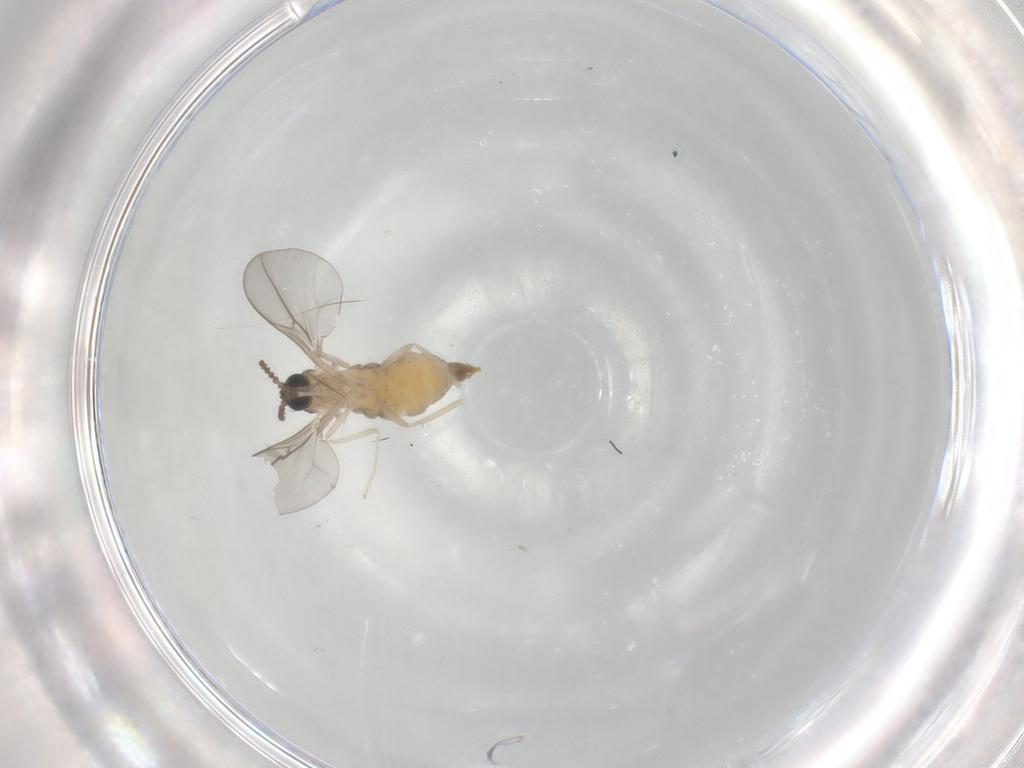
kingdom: Animalia
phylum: Arthropoda
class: Insecta
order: Diptera
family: Cecidomyiidae
